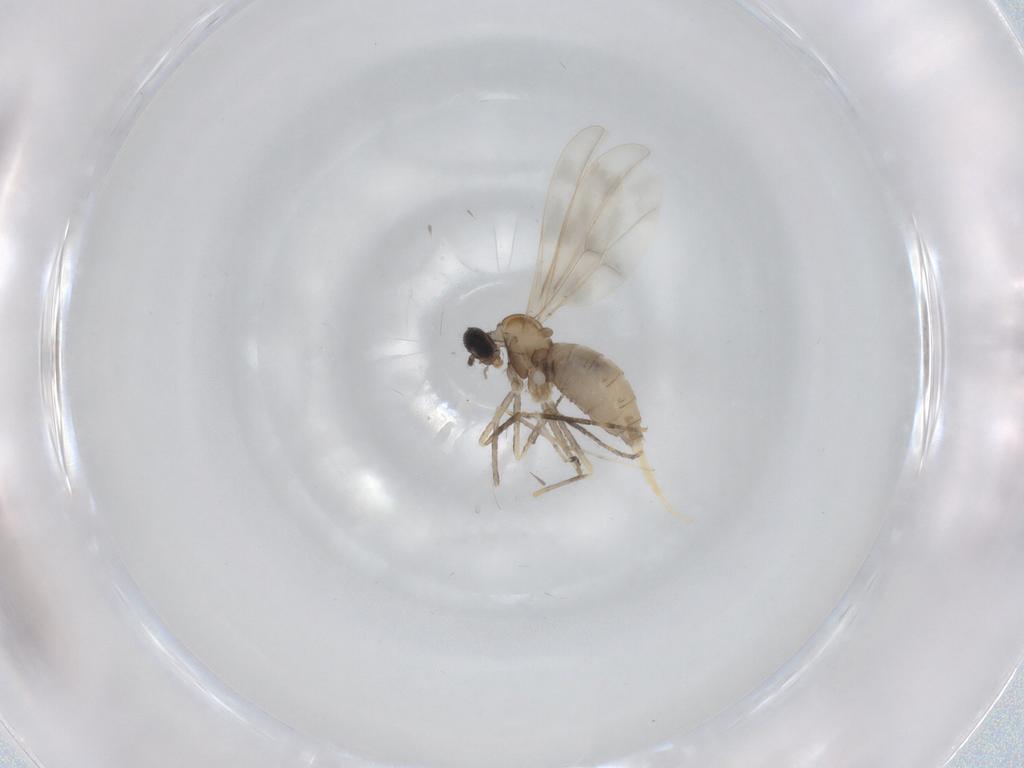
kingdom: Animalia
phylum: Arthropoda
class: Insecta
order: Diptera
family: Cecidomyiidae
